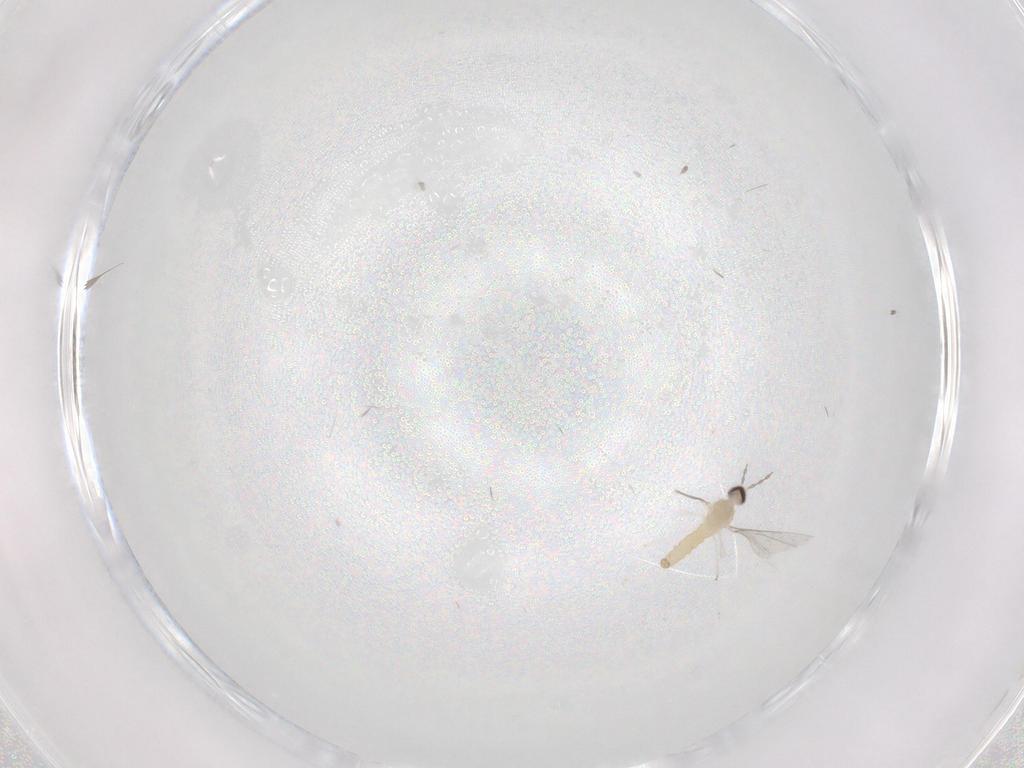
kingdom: Animalia
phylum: Arthropoda
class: Insecta
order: Diptera
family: Cecidomyiidae
